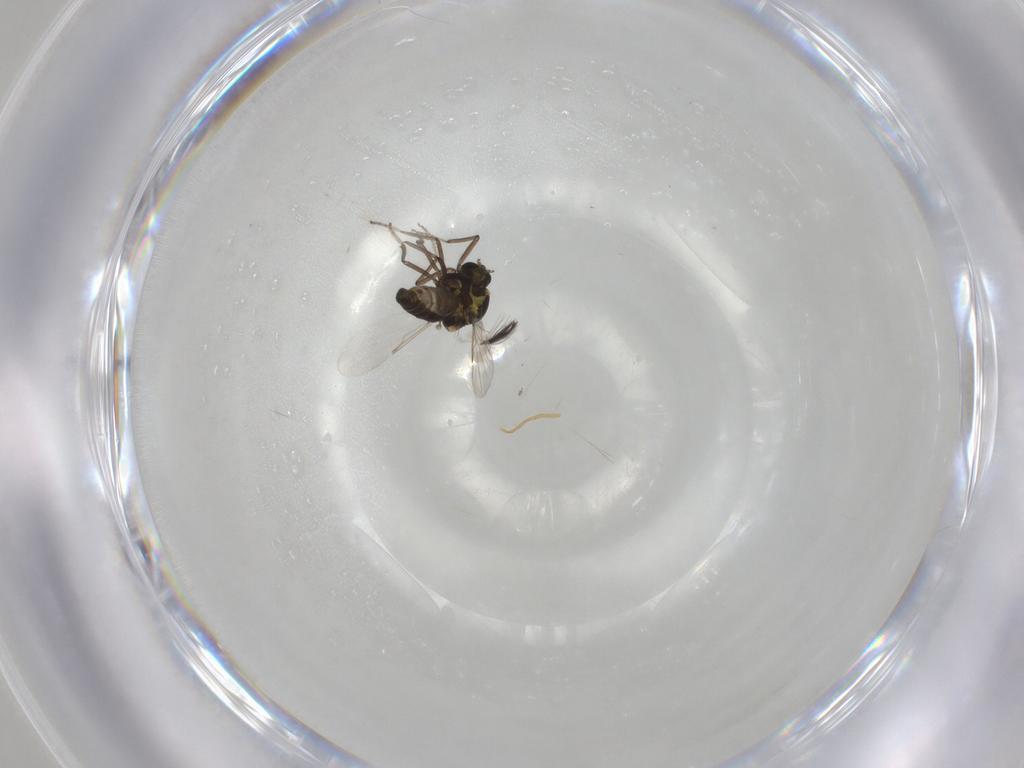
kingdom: Animalia
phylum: Arthropoda
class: Insecta
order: Diptera
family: Ceratopogonidae
